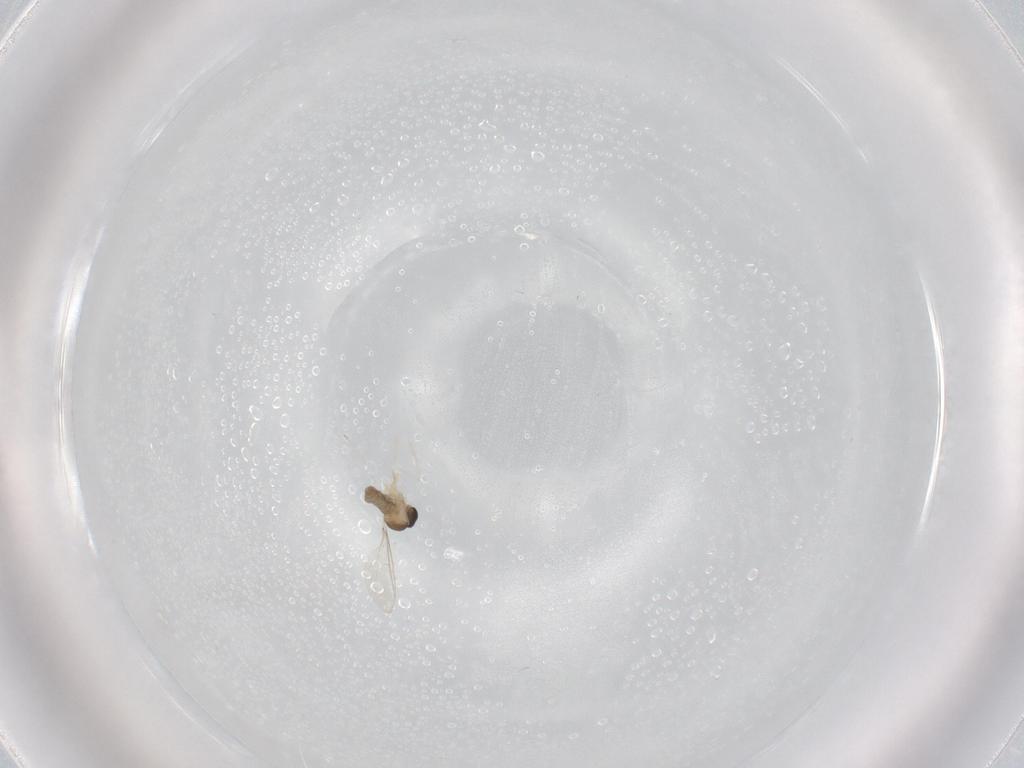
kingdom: Animalia
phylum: Arthropoda
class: Insecta
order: Diptera
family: Cecidomyiidae
